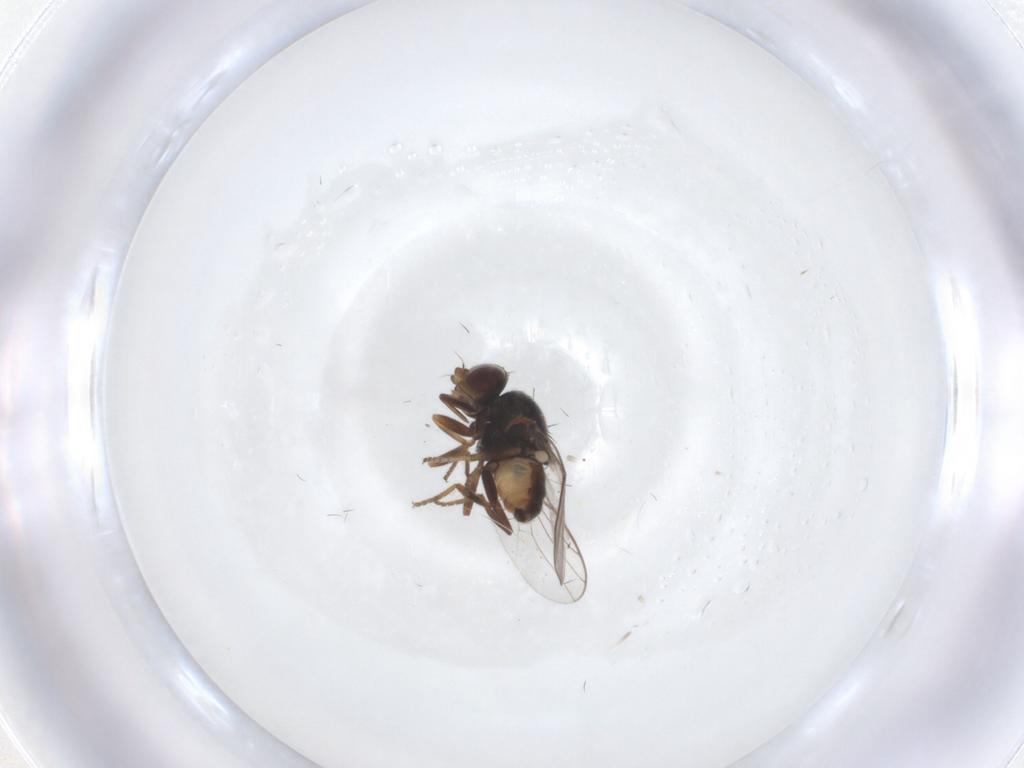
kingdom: Animalia
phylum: Arthropoda
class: Insecta
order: Diptera
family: Chloropidae
